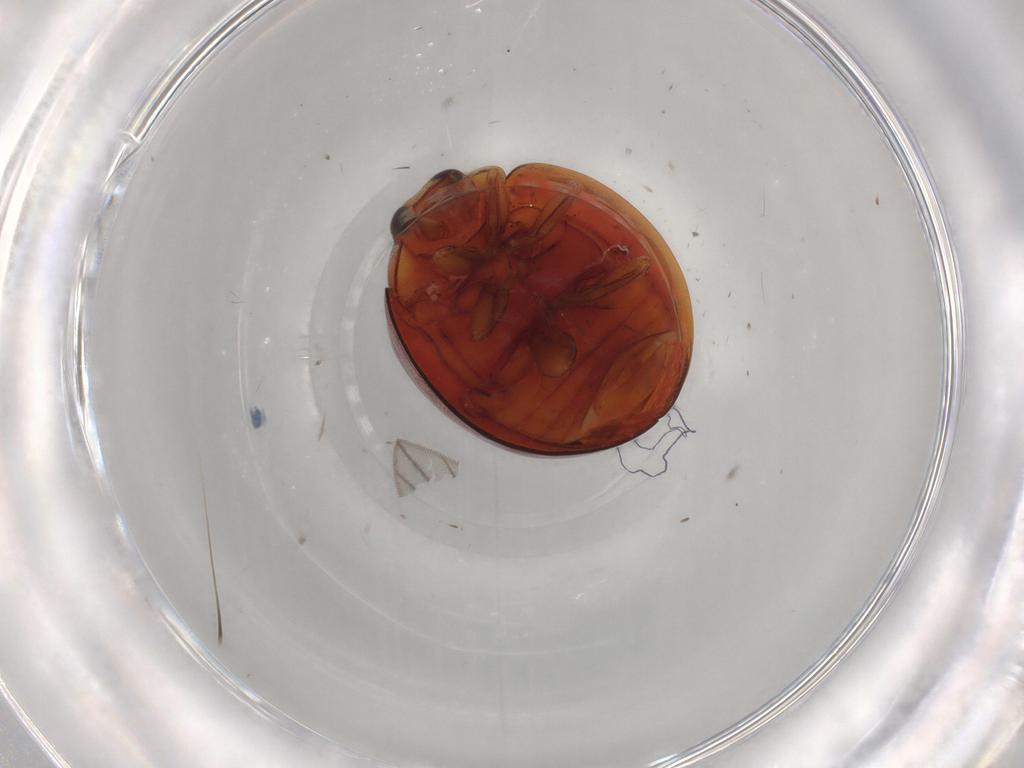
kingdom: Animalia
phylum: Arthropoda
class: Insecta
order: Coleoptera
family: Coccinellidae
